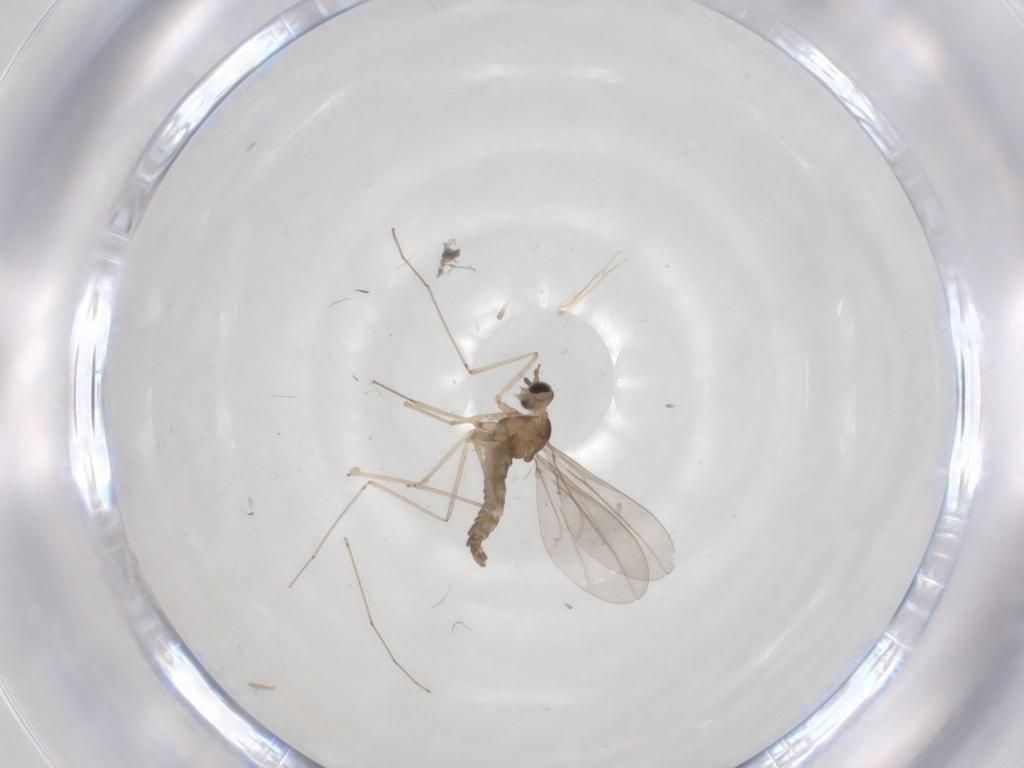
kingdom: Animalia
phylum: Arthropoda
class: Insecta
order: Diptera
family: Cecidomyiidae
